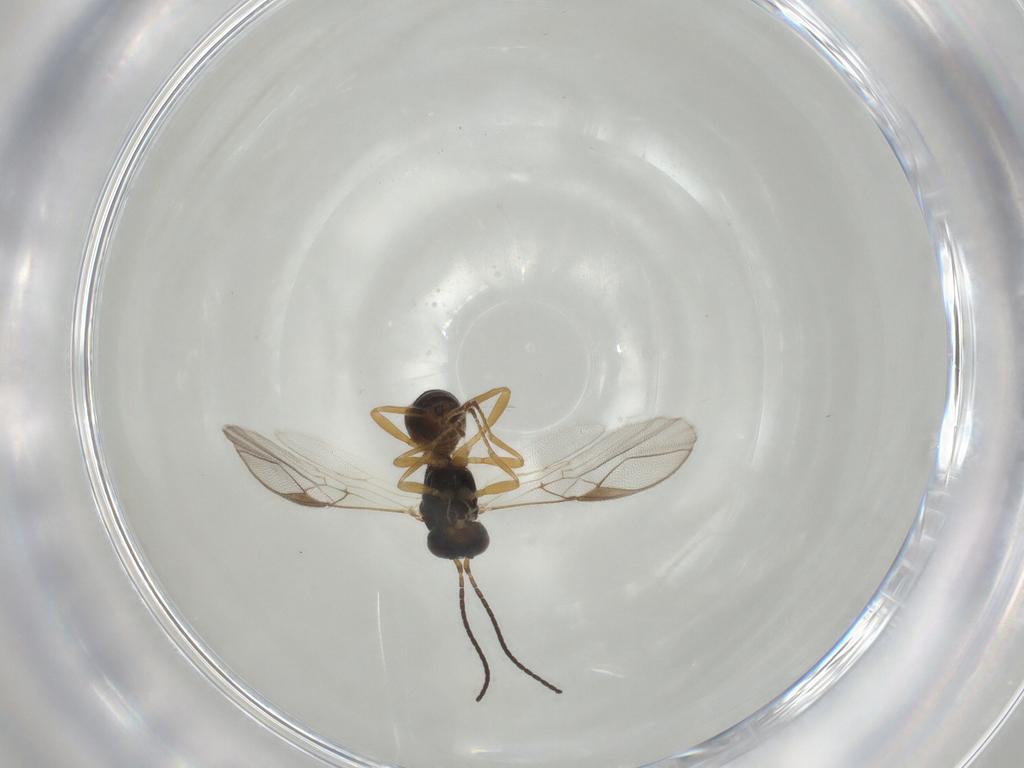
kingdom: Animalia
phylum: Arthropoda
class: Insecta
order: Hymenoptera
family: Braconidae
